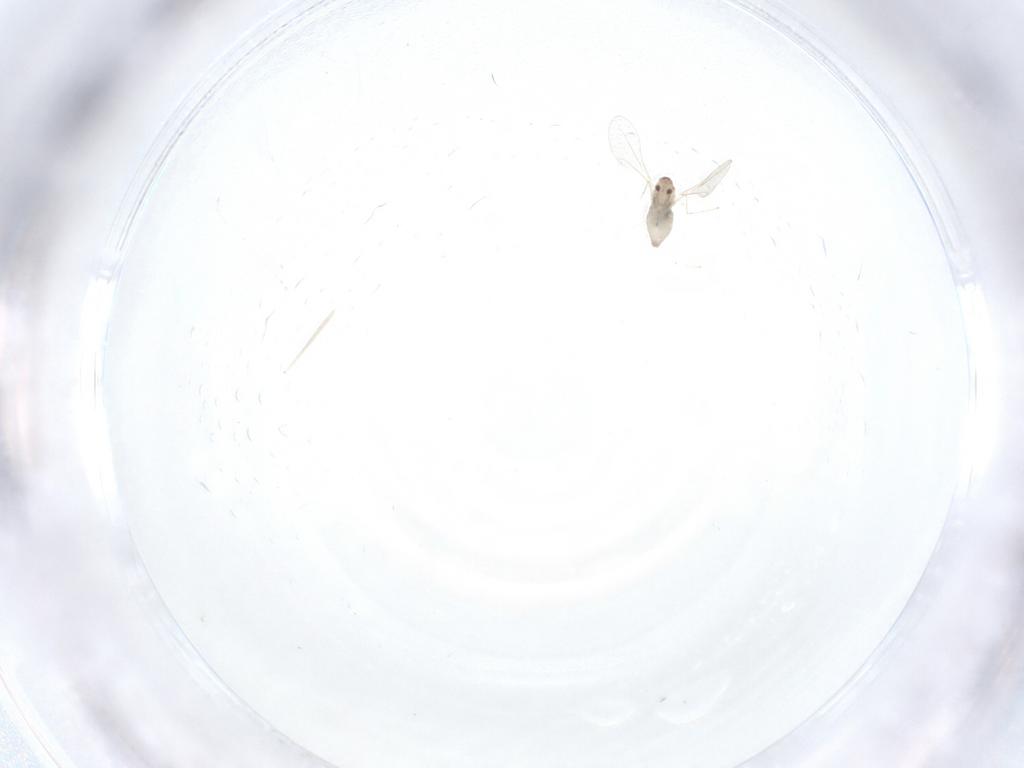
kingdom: Animalia
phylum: Arthropoda
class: Insecta
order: Diptera
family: Cecidomyiidae
